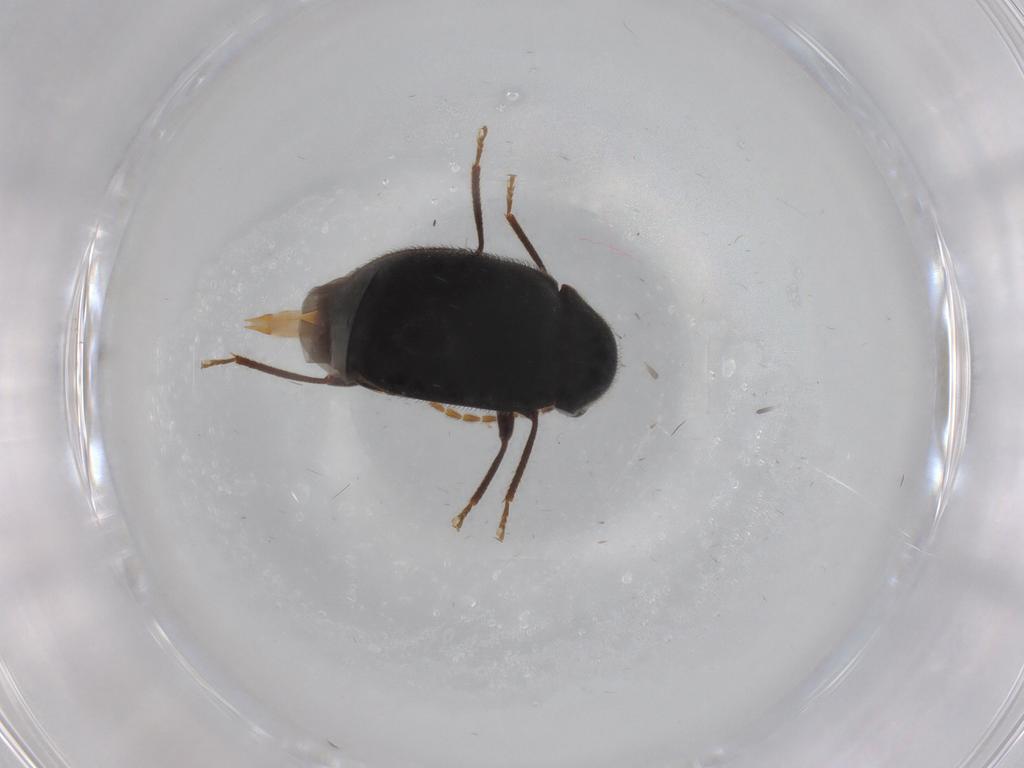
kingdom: Animalia
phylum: Arthropoda
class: Insecta
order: Coleoptera
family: Ptilodactylidae
